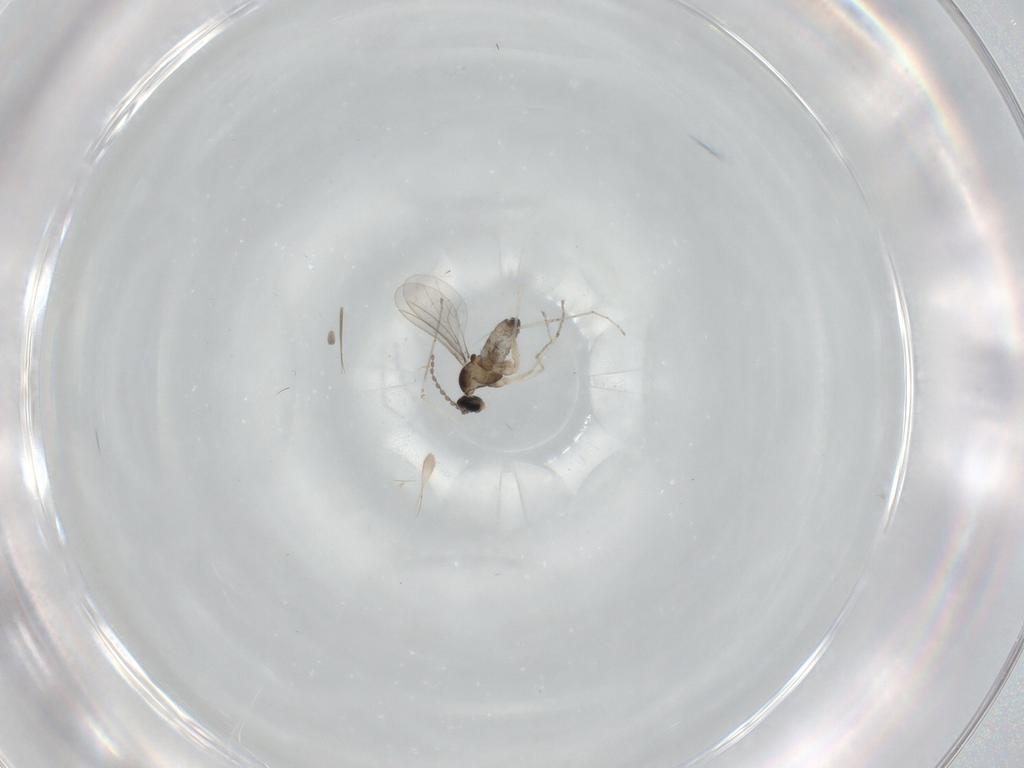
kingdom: Animalia
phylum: Arthropoda
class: Insecta
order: Diptera
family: Cecidomyiidae
